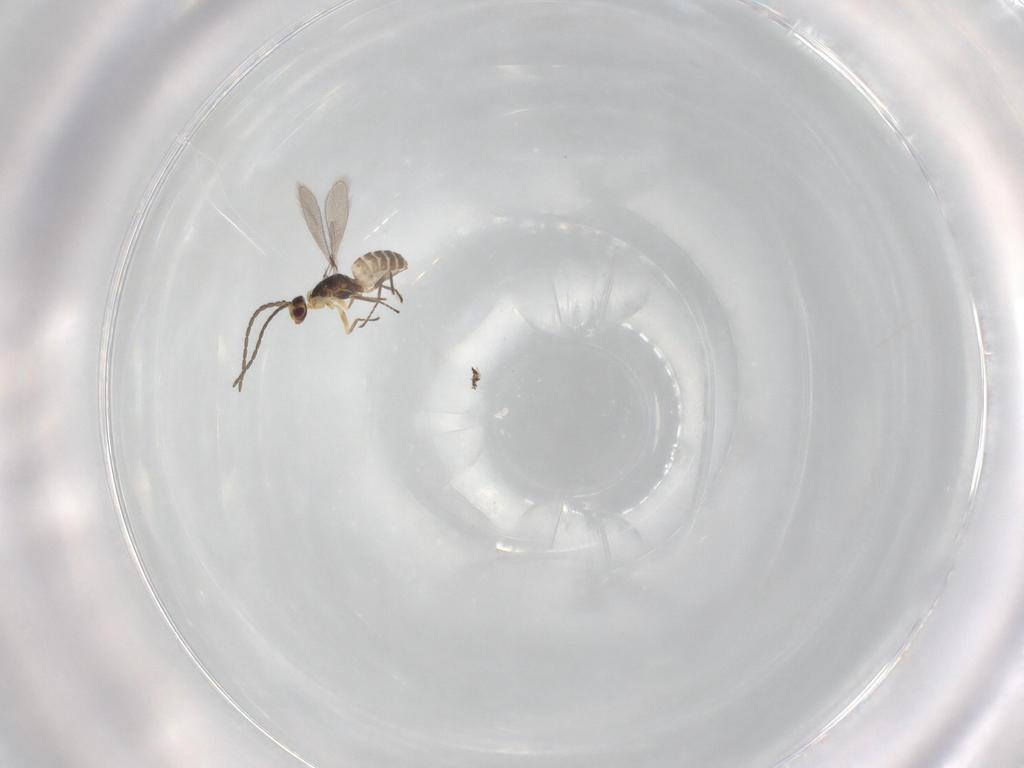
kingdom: Animalia
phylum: Arthropoda
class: Insecta
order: Hymenoptera
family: Mymaridae
